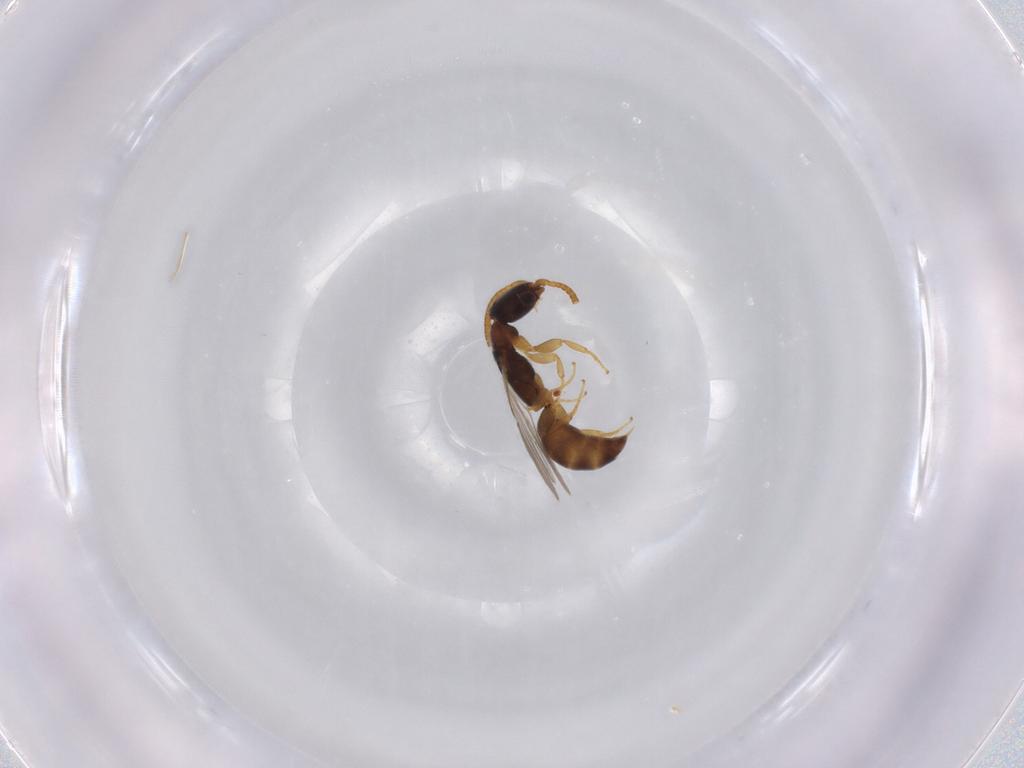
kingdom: Animalia
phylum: Arthropoda
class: Insecta
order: Hymenoptera
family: Bethylidae
